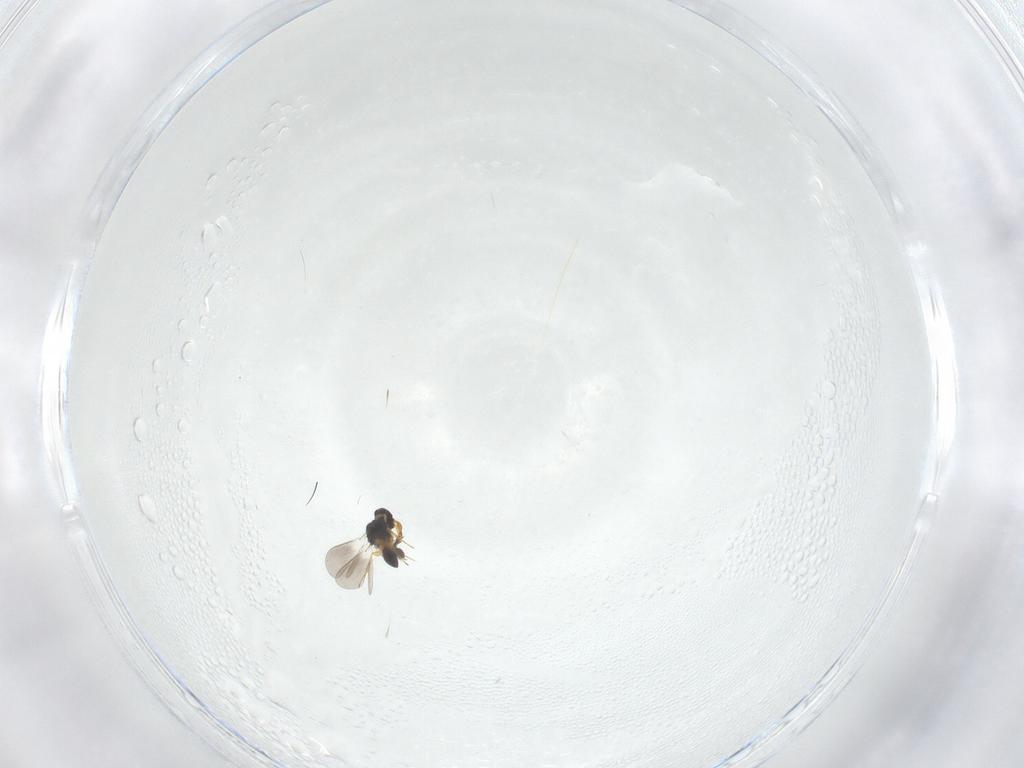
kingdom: Animalia
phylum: Arthropoda
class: Insecta
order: Hymenoptera
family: Platygastridae
